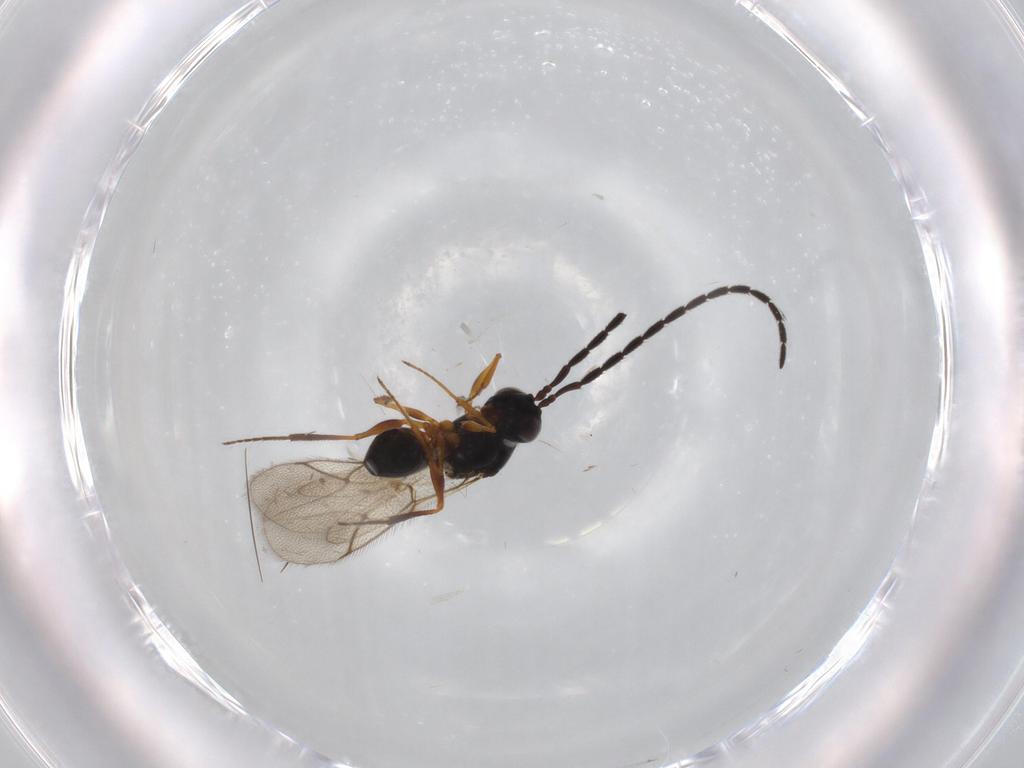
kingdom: Animalia
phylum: Arthropoda
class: Insecta
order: Hymenoptera
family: Figitidae
